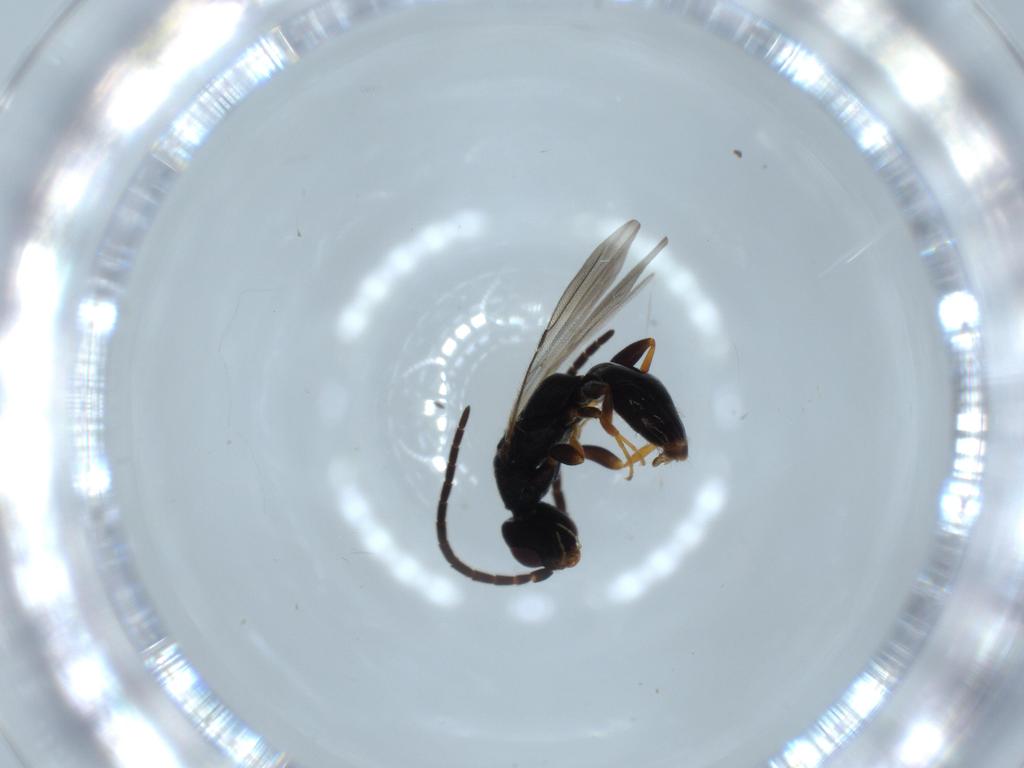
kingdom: Animalia
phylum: Arthropoda
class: Insecta
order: Hymenoptera
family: Bethylidae
